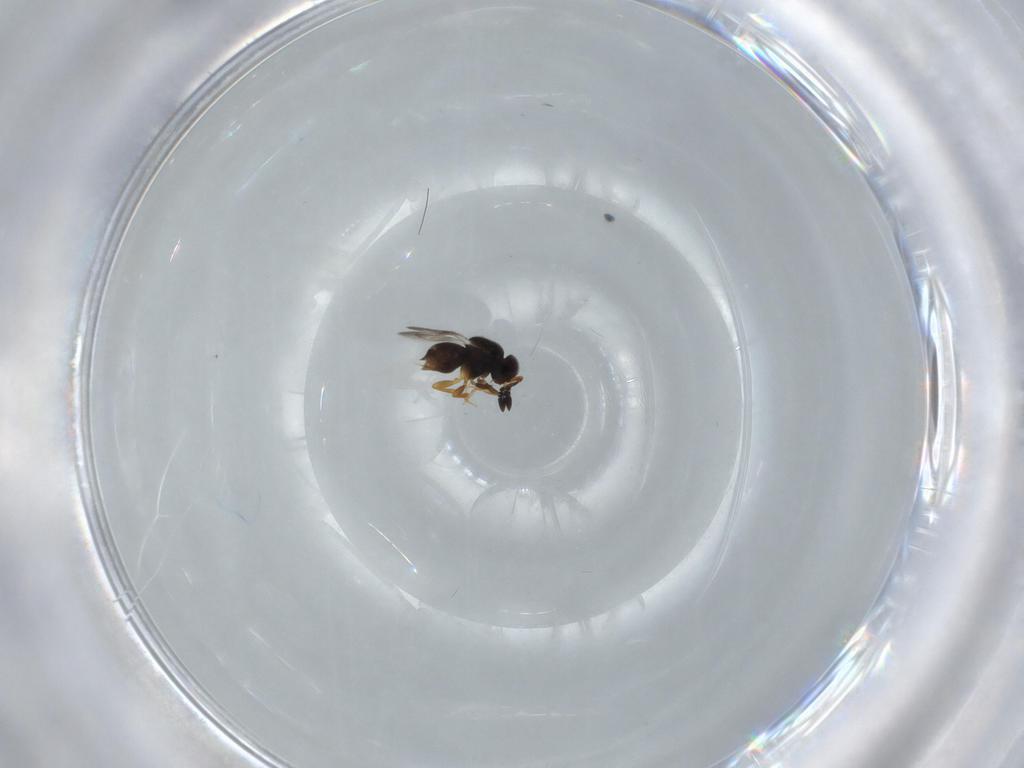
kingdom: Animalia
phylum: Arthropoda
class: Insecta
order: Hymenoptera
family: Ceraphronidae
